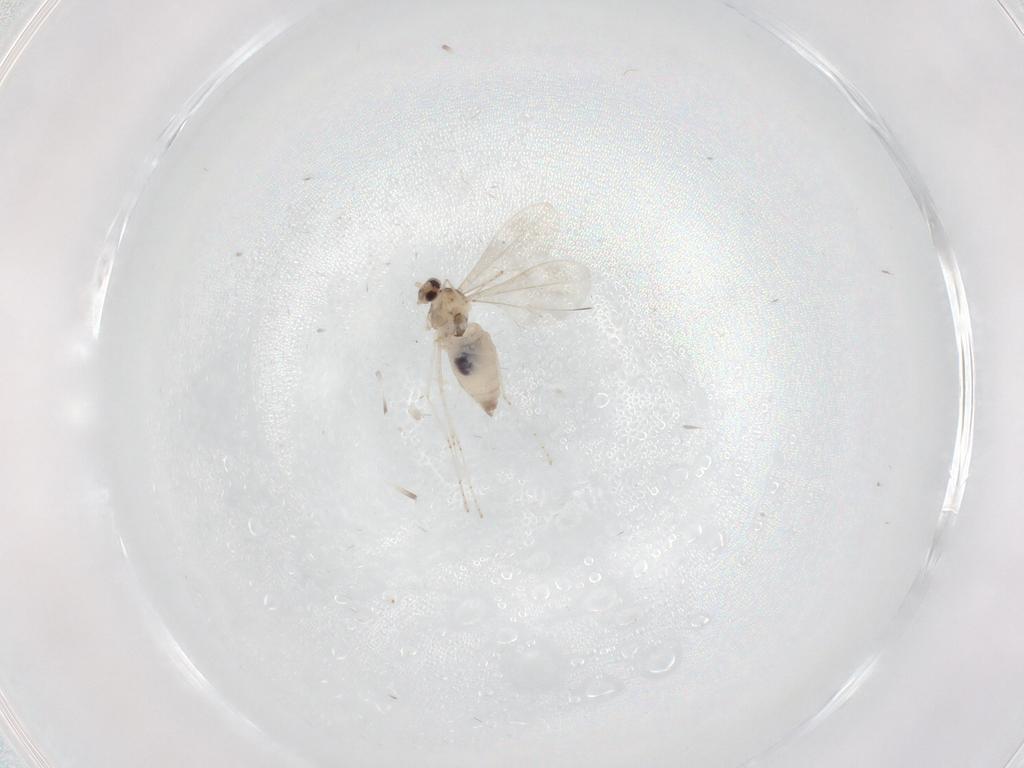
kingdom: Animalia
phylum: Arthropoda
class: Insecta
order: Diptera
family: Cecidomyiidae
